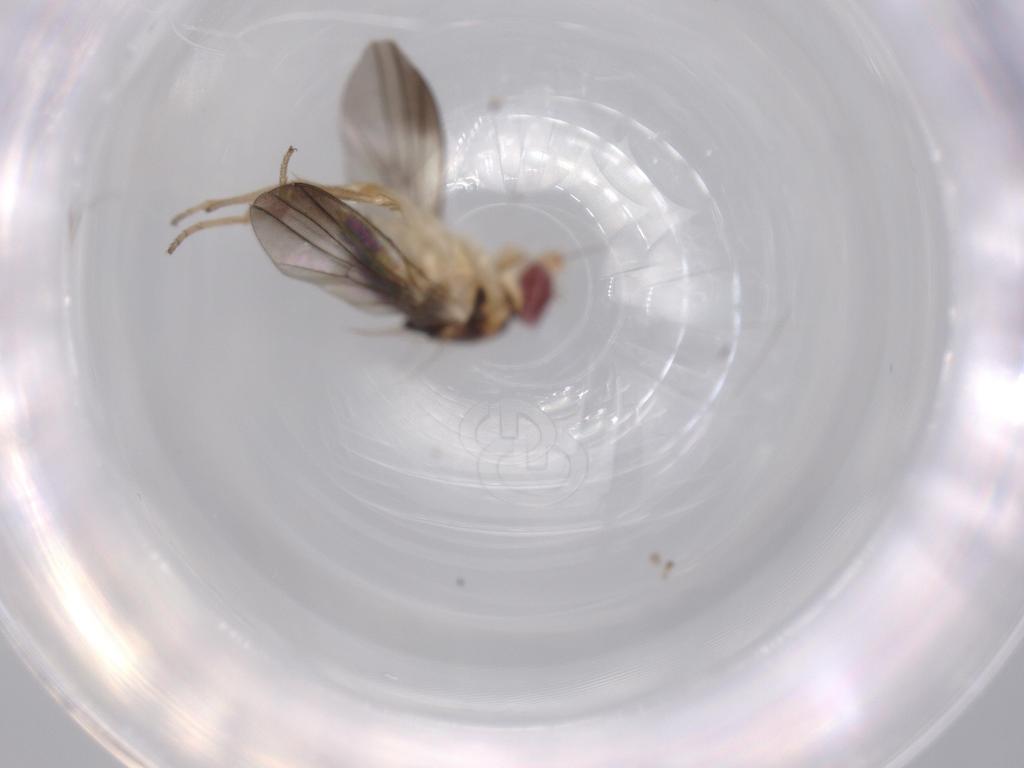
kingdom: Animalia
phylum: Arthropoda
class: Insecta
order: Diptera
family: Clusiidae
